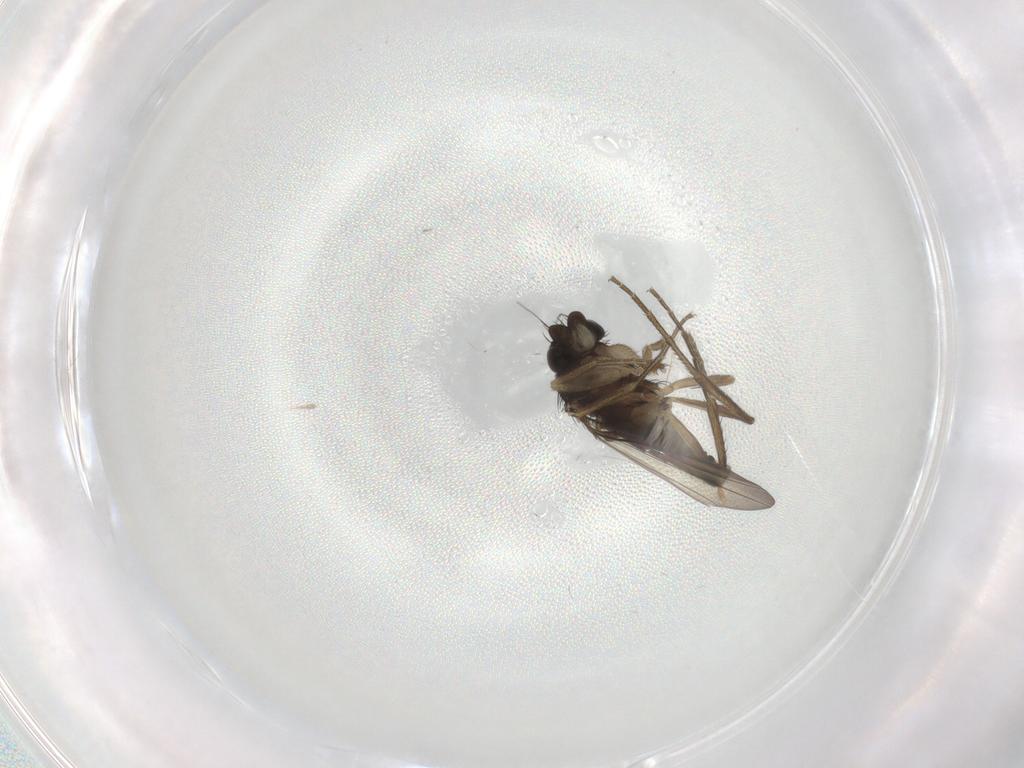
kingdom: Animalia
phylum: Arthropoda
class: Insecta
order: Diptera
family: Phoridae
